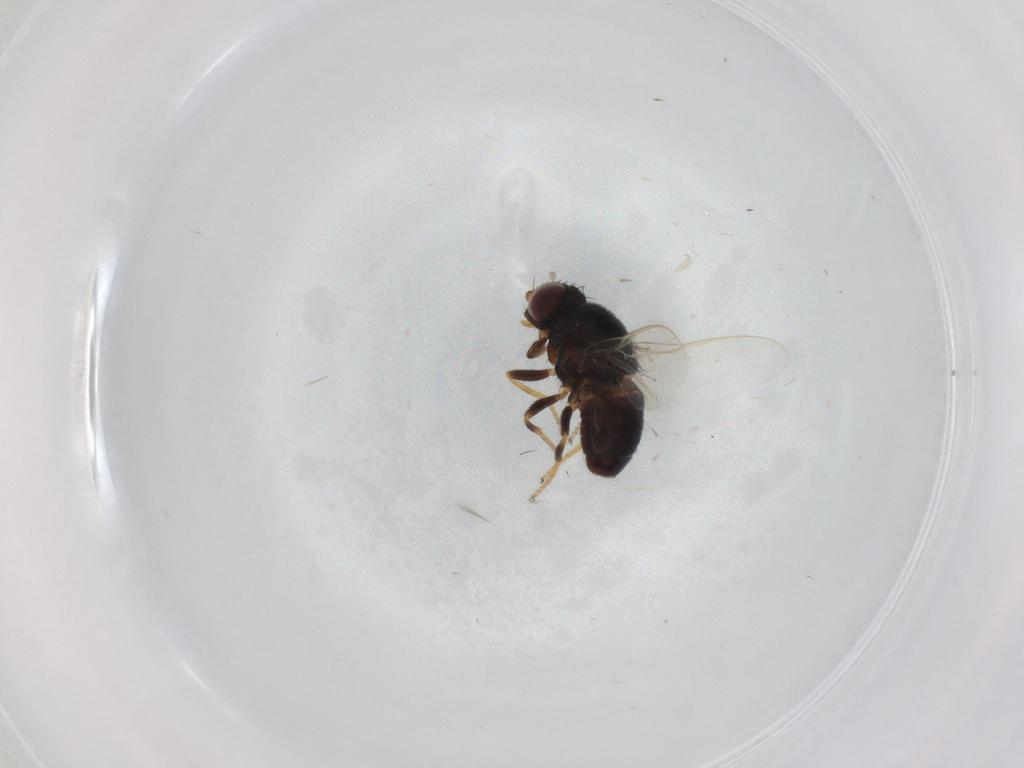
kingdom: Animalia
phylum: Arthropoda
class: Insecta
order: Diptera
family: Chloropidae
